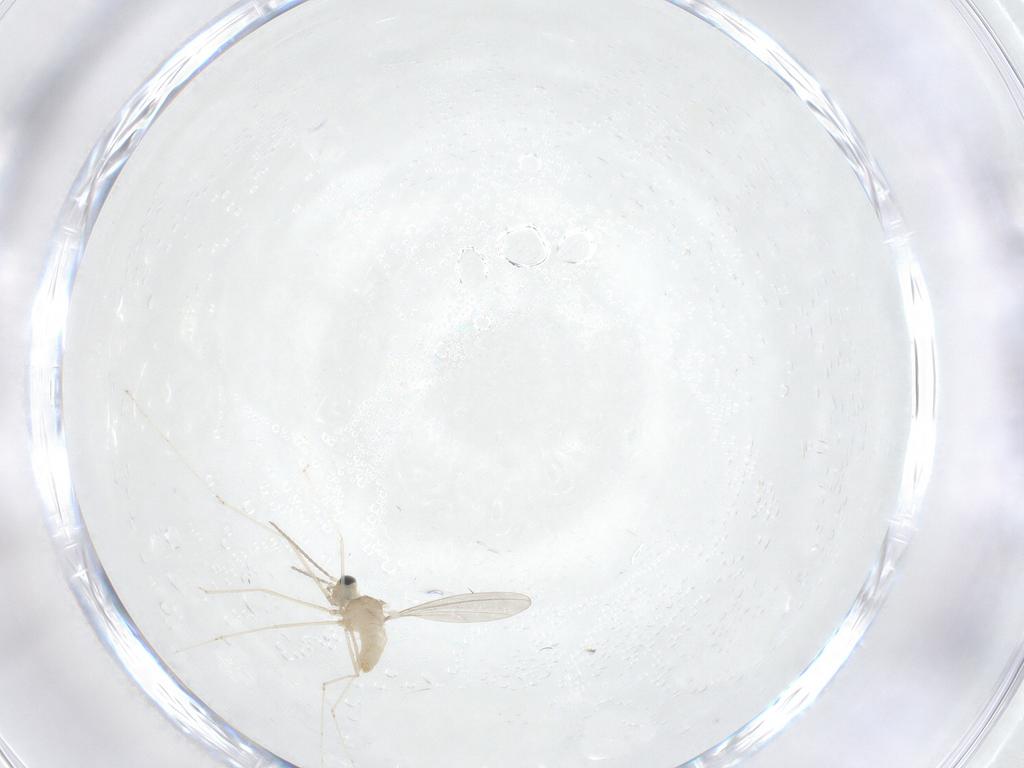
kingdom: Animalia
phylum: Arthropoda
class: Insecta
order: Diptera
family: Cecidomyiidae
